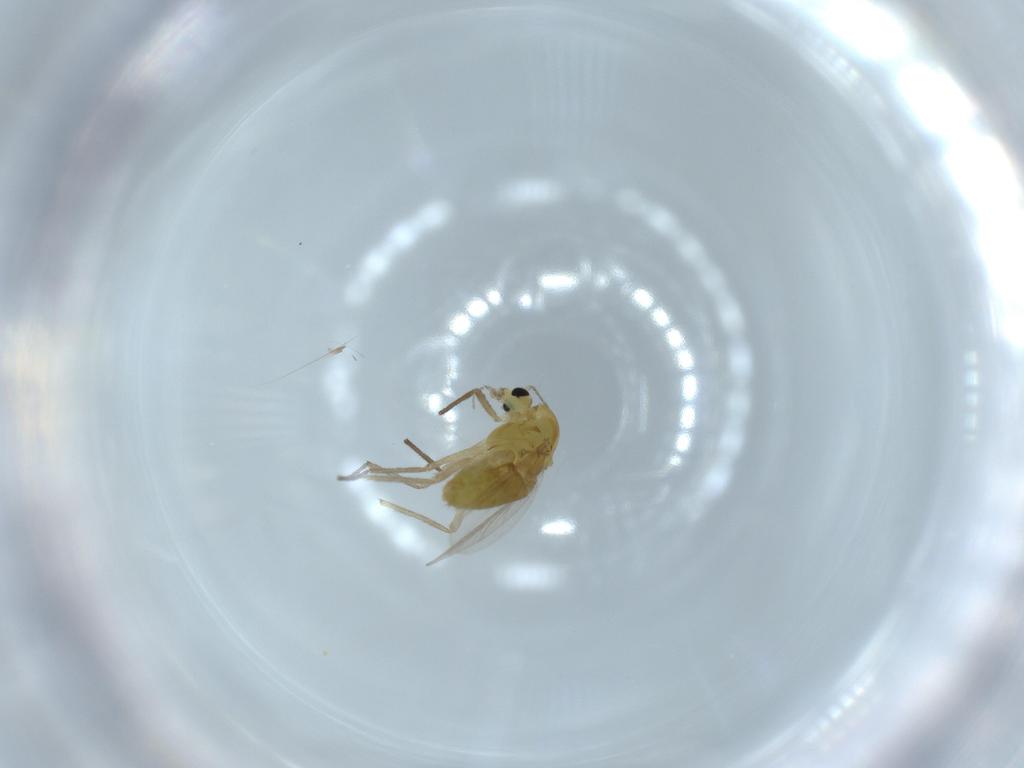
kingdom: Animalia
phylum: Arthropoda
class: Insecta
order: Diptera
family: Chironomidae
